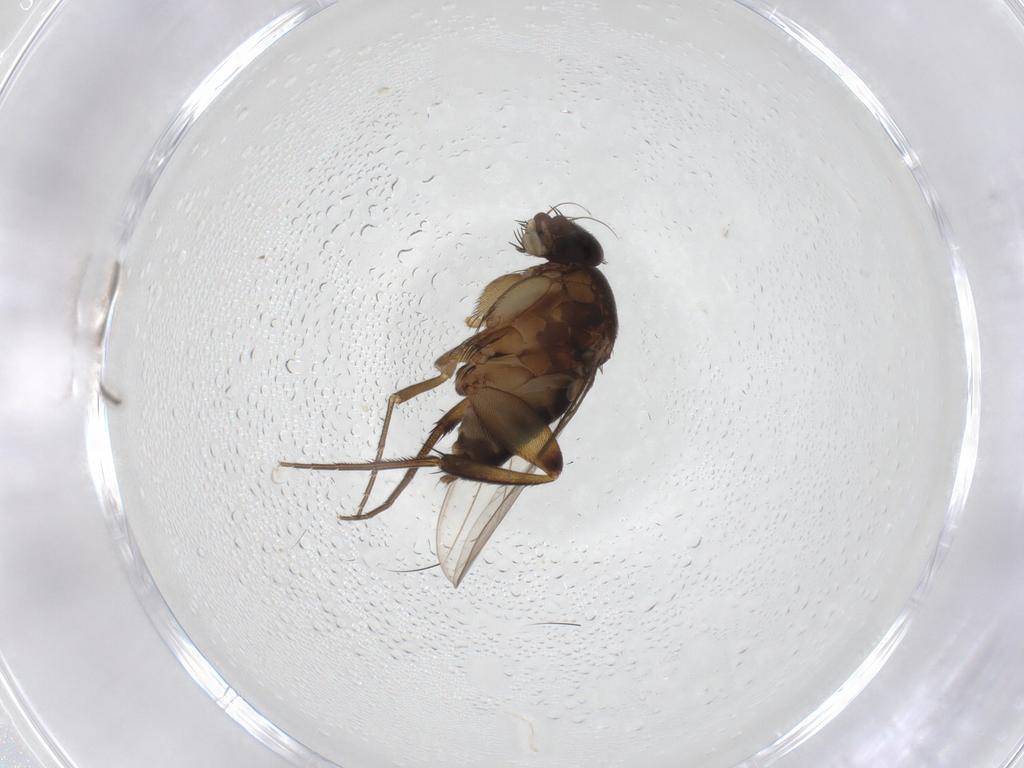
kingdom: Animalia
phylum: Arthropoda
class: Insecta
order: Diptera
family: Phoridae
